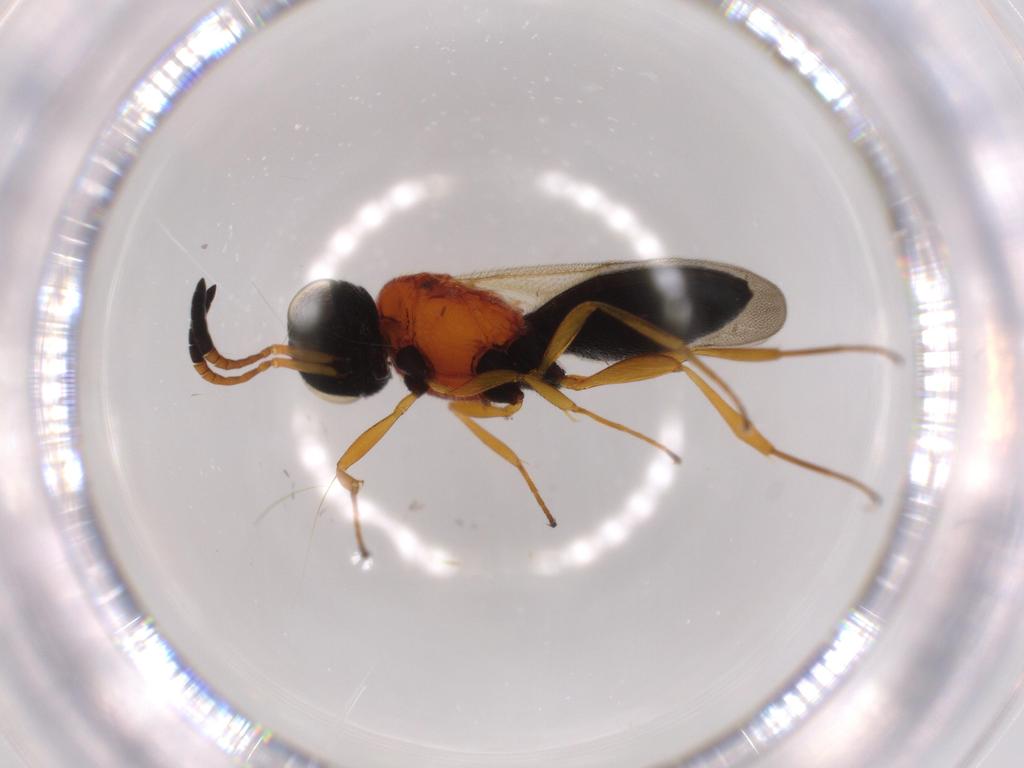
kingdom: Animalia
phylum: Arthropoda
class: Insecta
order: Hymenoptera
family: Scelionidae
